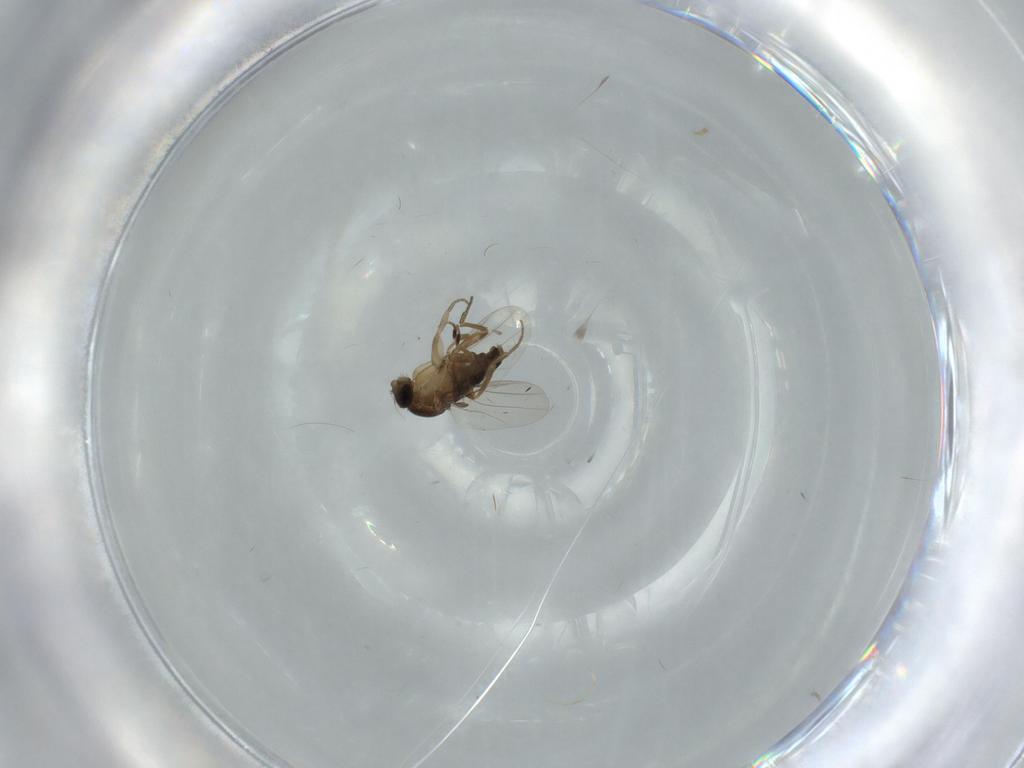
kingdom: Animalia
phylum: Arthropoda
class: Insecta
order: Diptera
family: Phoridae
